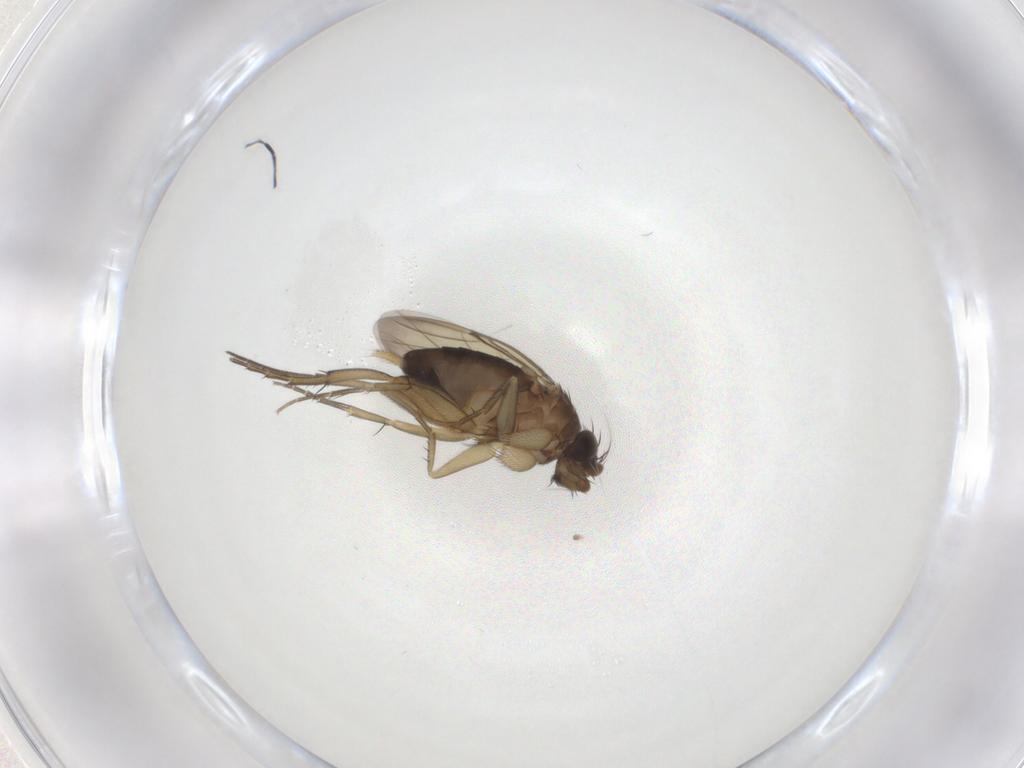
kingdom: Animalia
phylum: Arthropoda
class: Insecta
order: Diptera
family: Phoridae
